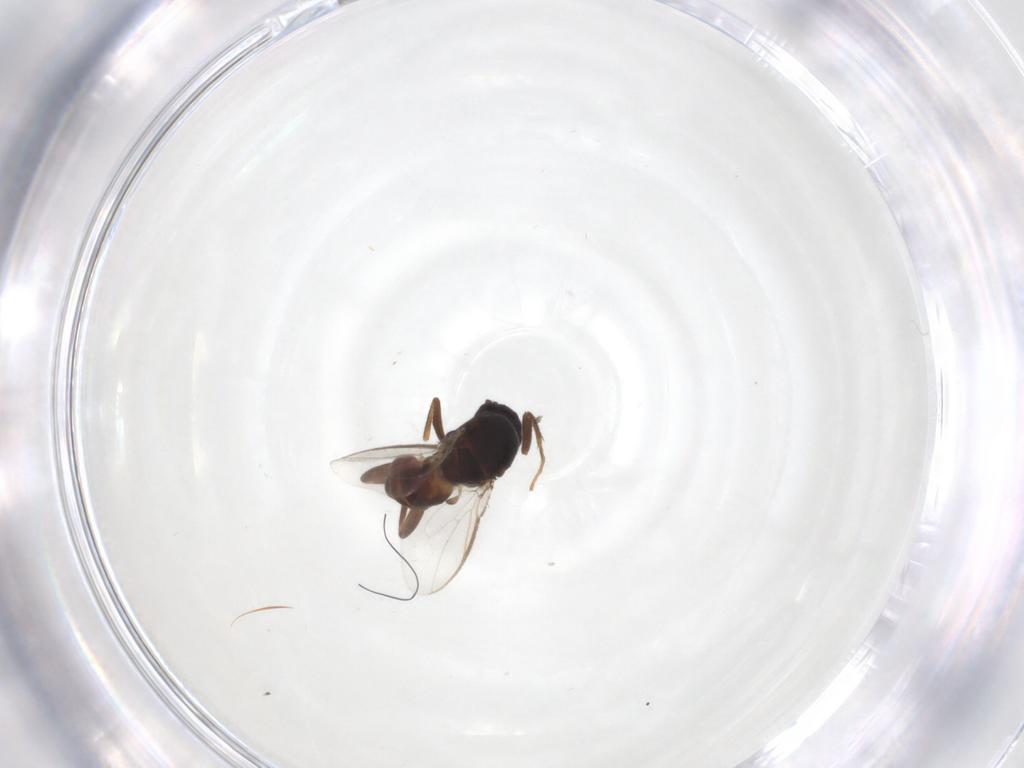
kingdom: Animalia
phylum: Arthropoda
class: Insecta
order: Diptera
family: Sphaeroceridae
